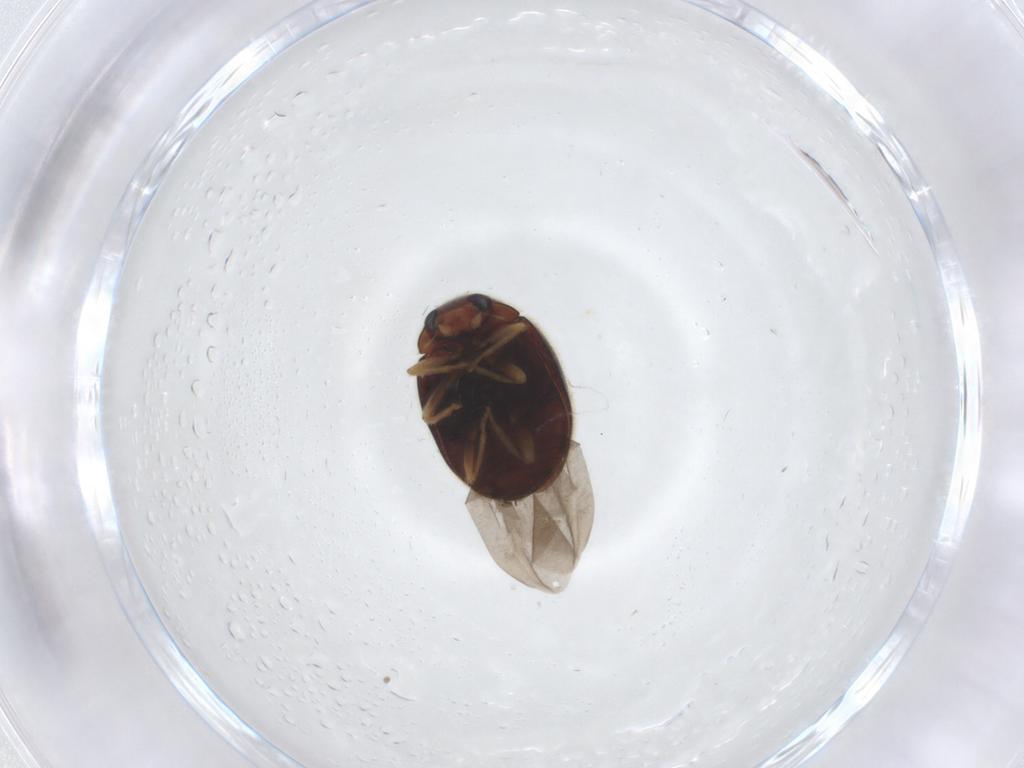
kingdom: Animalia
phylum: Arthropoda
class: Insecta
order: Coleoptera
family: Coccinellidae
